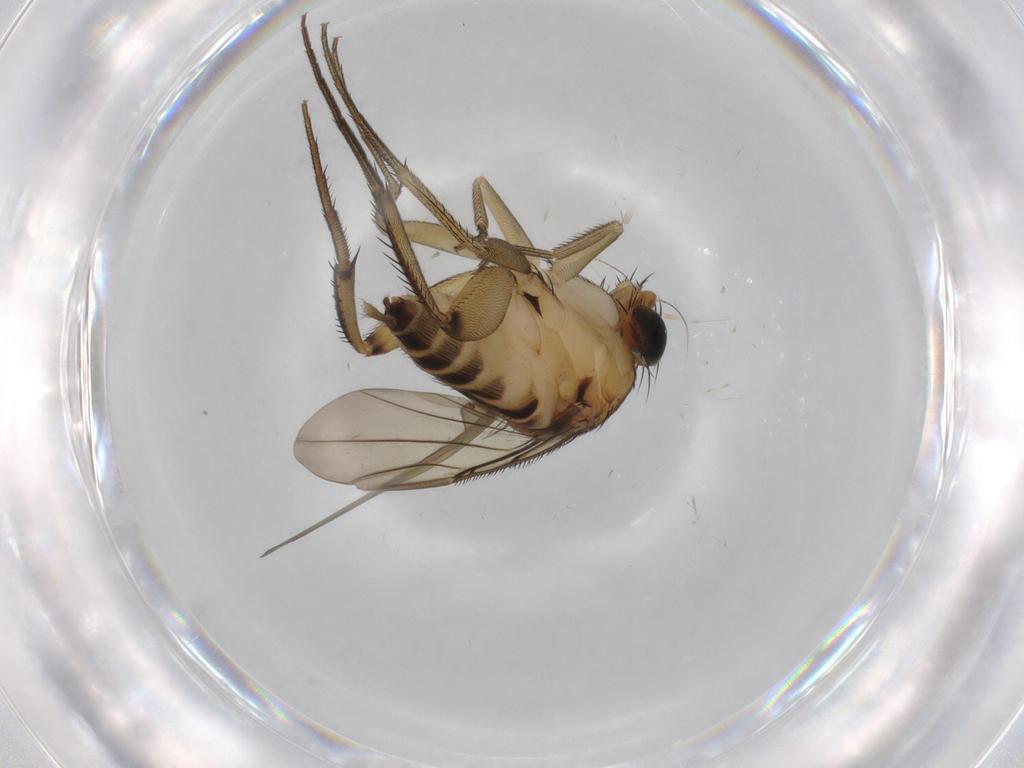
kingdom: Animalia
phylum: Arthropoda
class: Insecta
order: Diptera
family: Phoridae
